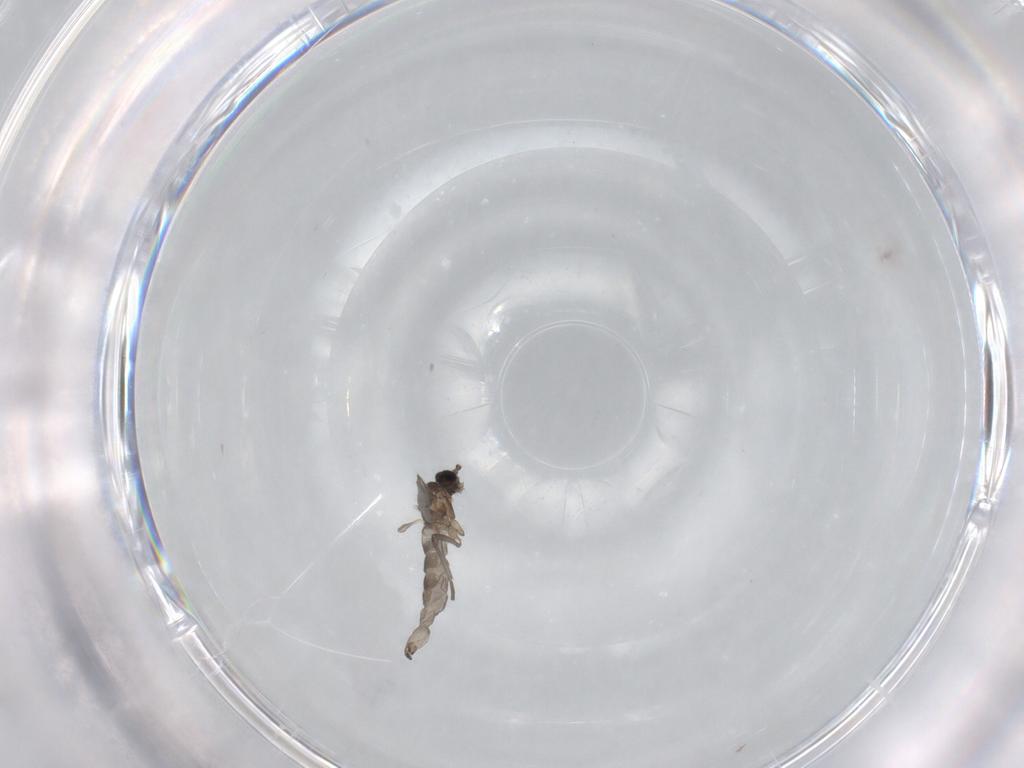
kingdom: Animalia
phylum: Arthropoda
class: Insecta
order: Diptera
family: Sciaridae
